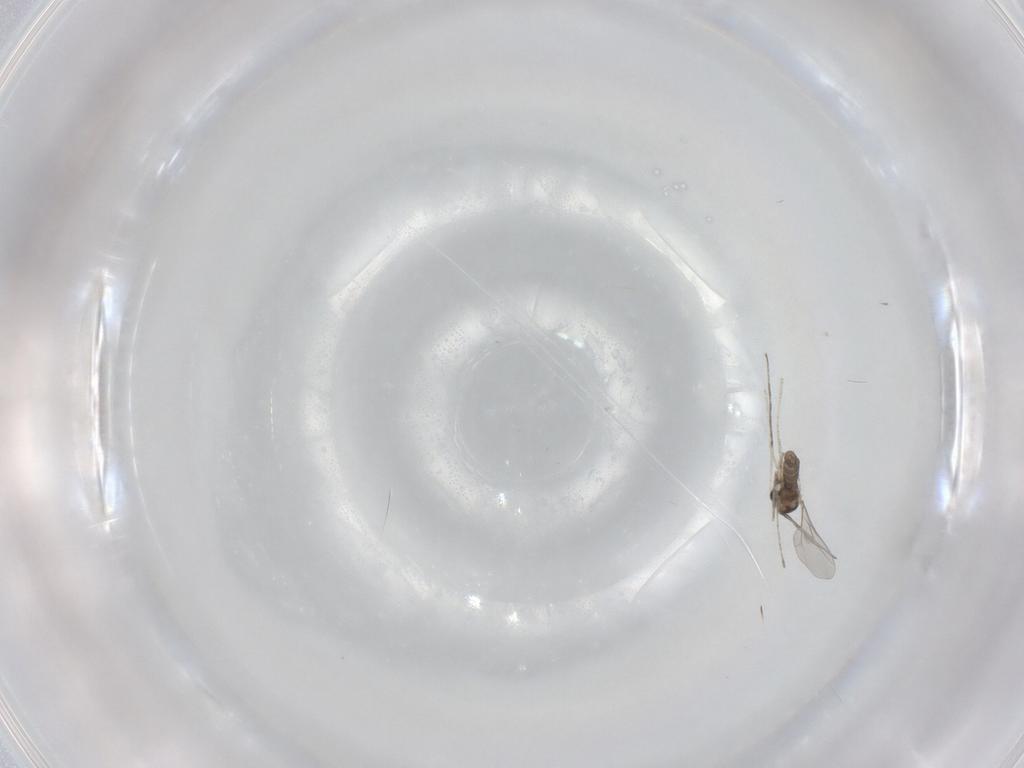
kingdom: Animalia
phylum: Arthropoda
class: Insecta
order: Diptera
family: Cecidomyiidae
